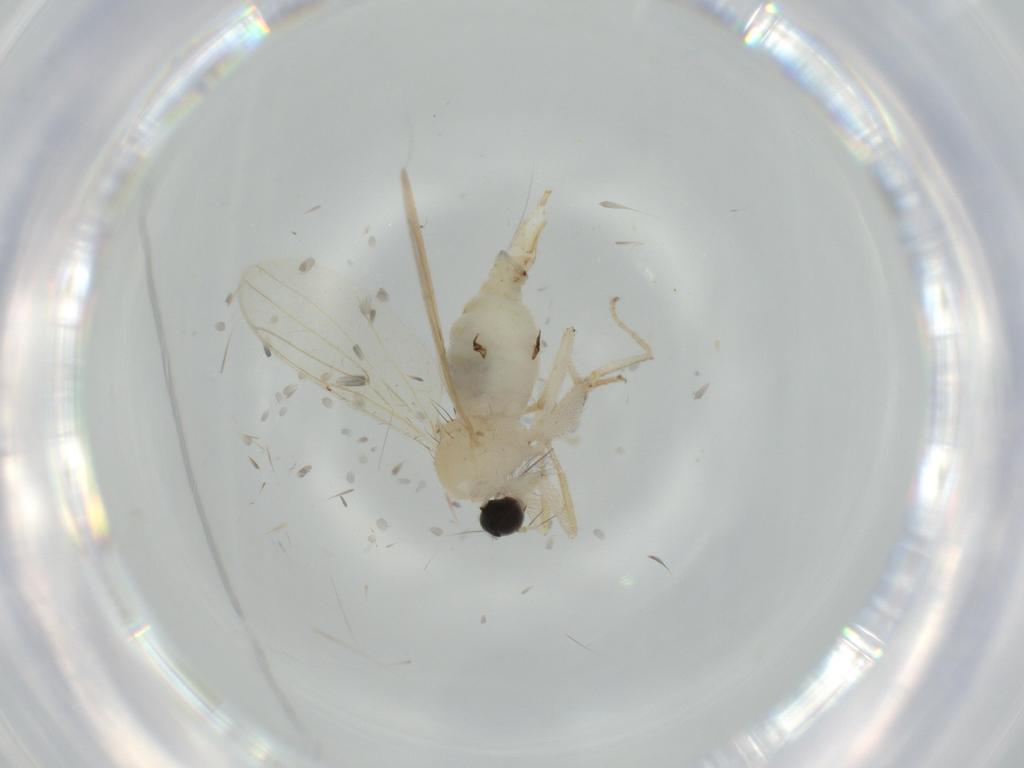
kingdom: Animalia
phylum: Arthropoda
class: Insecta
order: Diptera
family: Hybotidae
